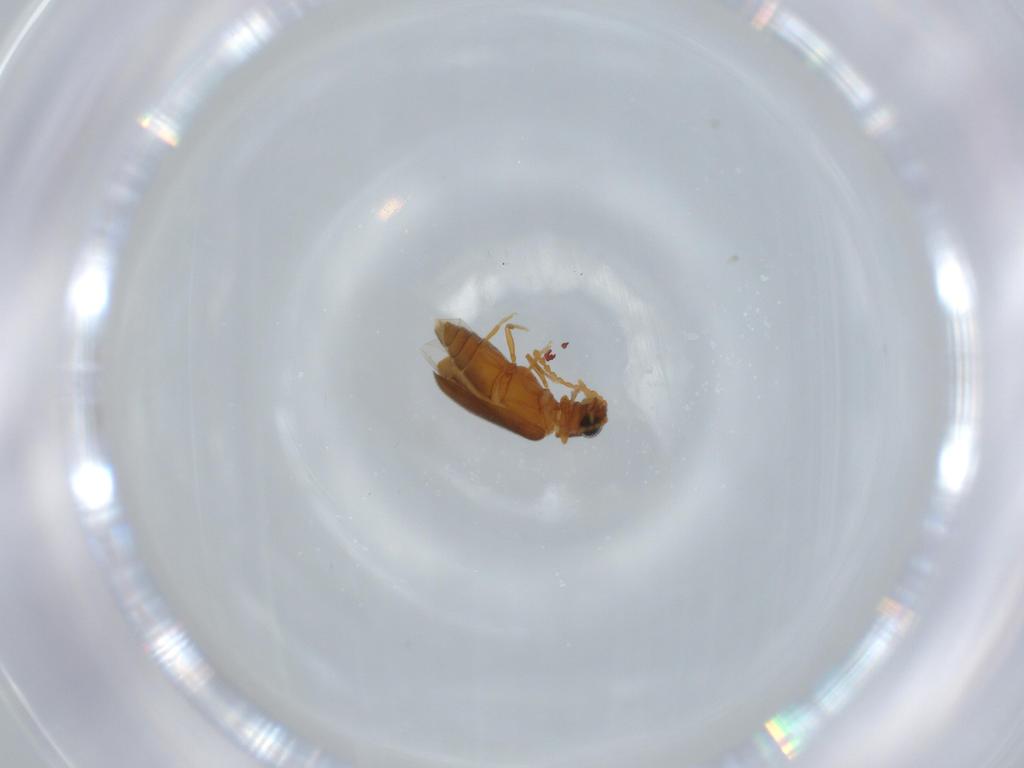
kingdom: Animalia
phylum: Arthropoda
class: Insecta
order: Coleoptera
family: Aderidae
